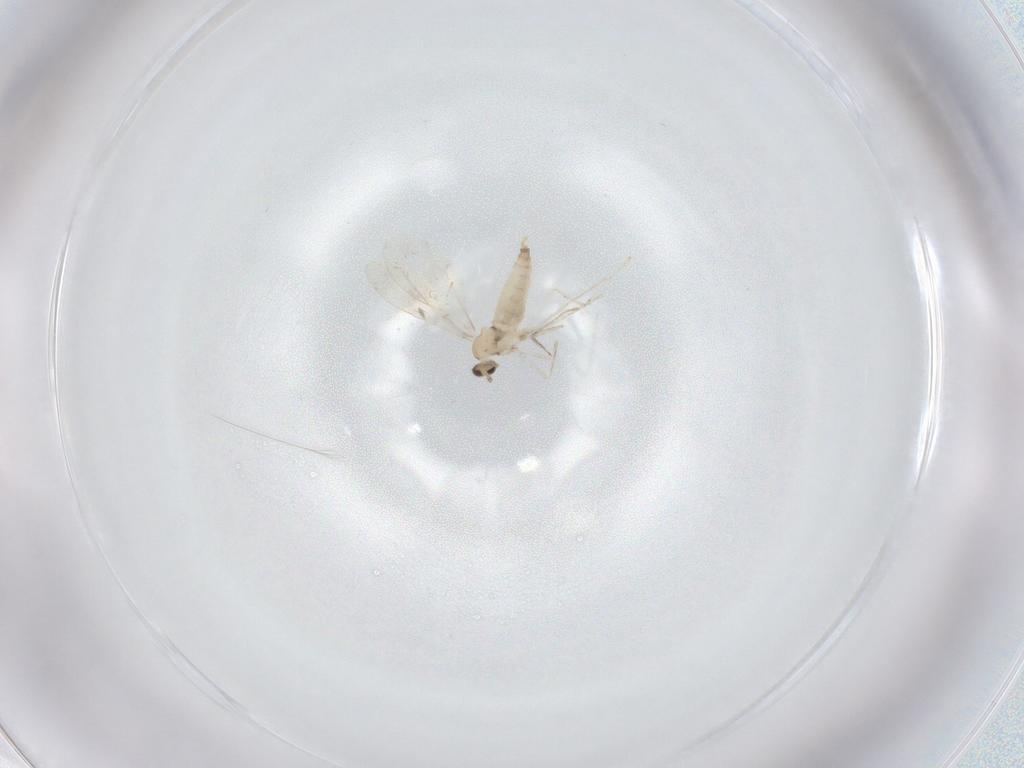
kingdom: Animalia
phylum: Arthropoda
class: Insecta
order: Diptera
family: Cecidomyiidae
